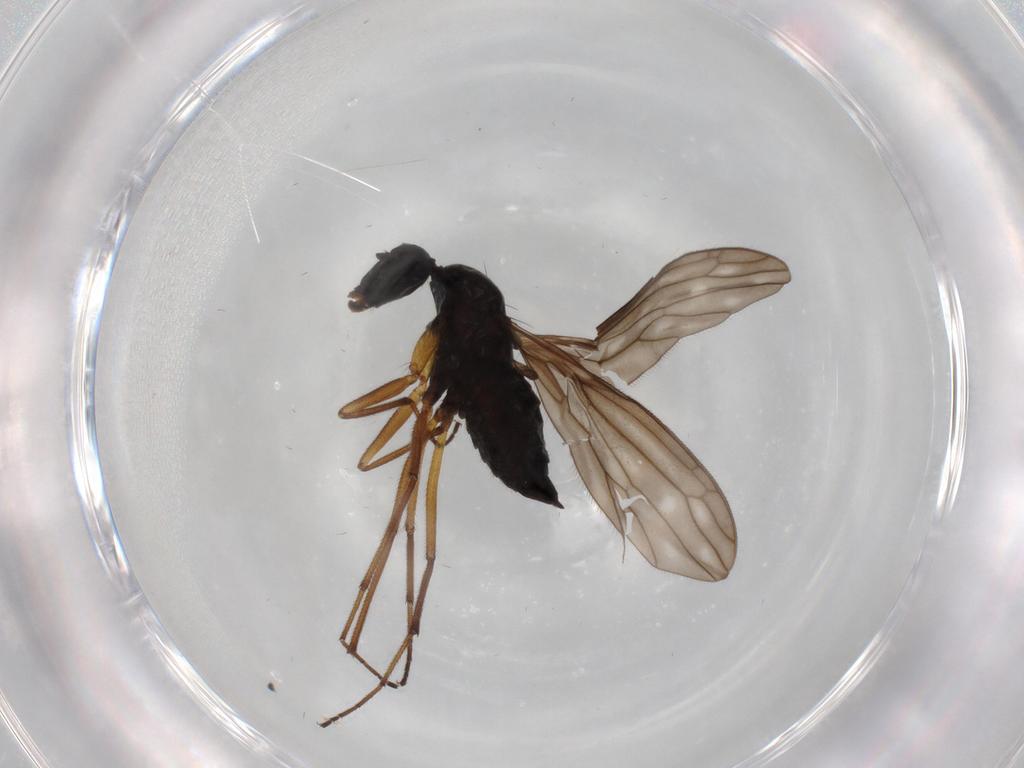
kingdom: Animalia
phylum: Arthropoda
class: Insecta
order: Diptera
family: Empididae
